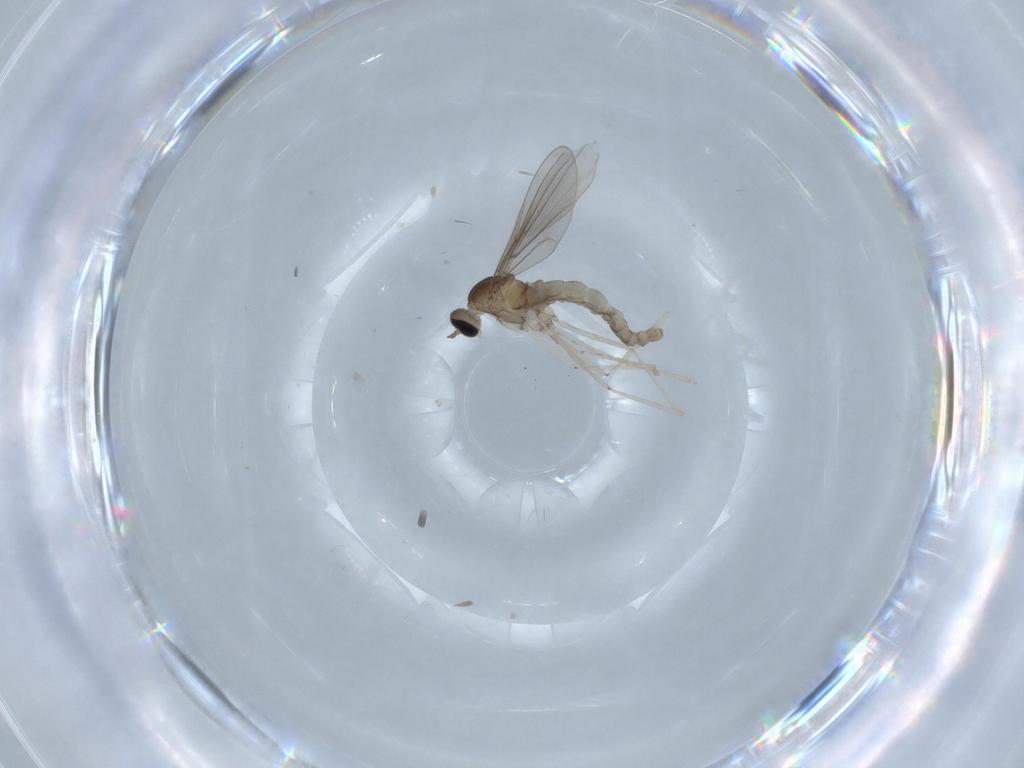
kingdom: Animalia
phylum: Arthropoda
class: Insecta
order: Diptera
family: Cecidomyiidae
